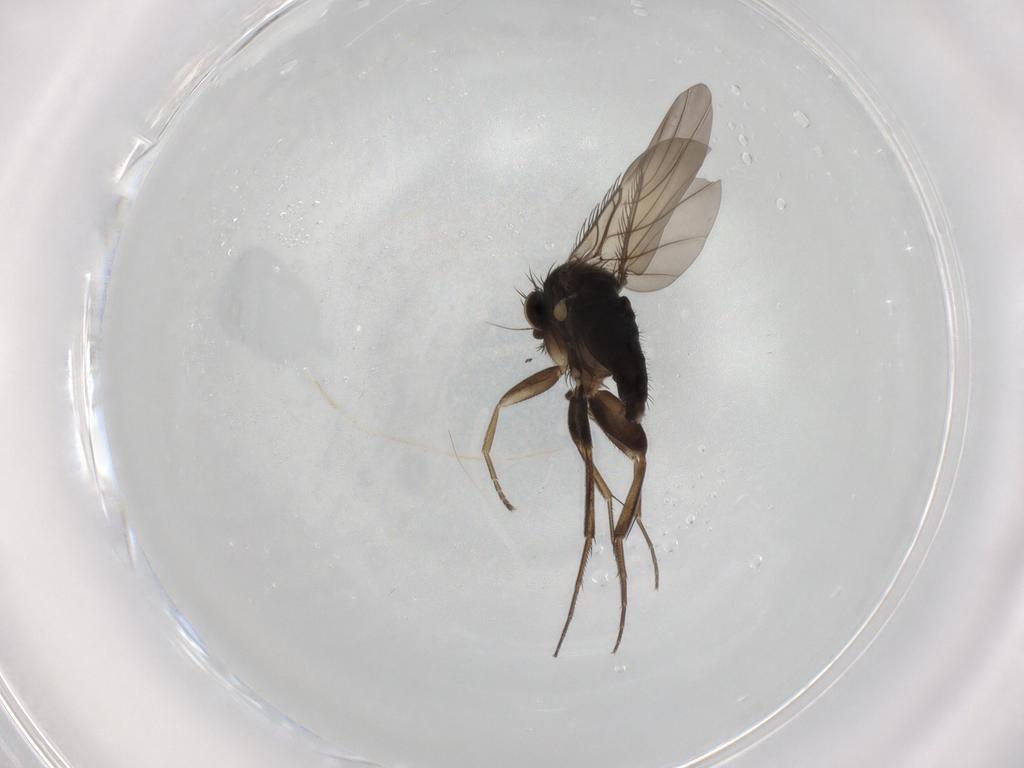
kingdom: Animalia
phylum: Arthropoda
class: Insecta
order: Diptera
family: Phoridae
